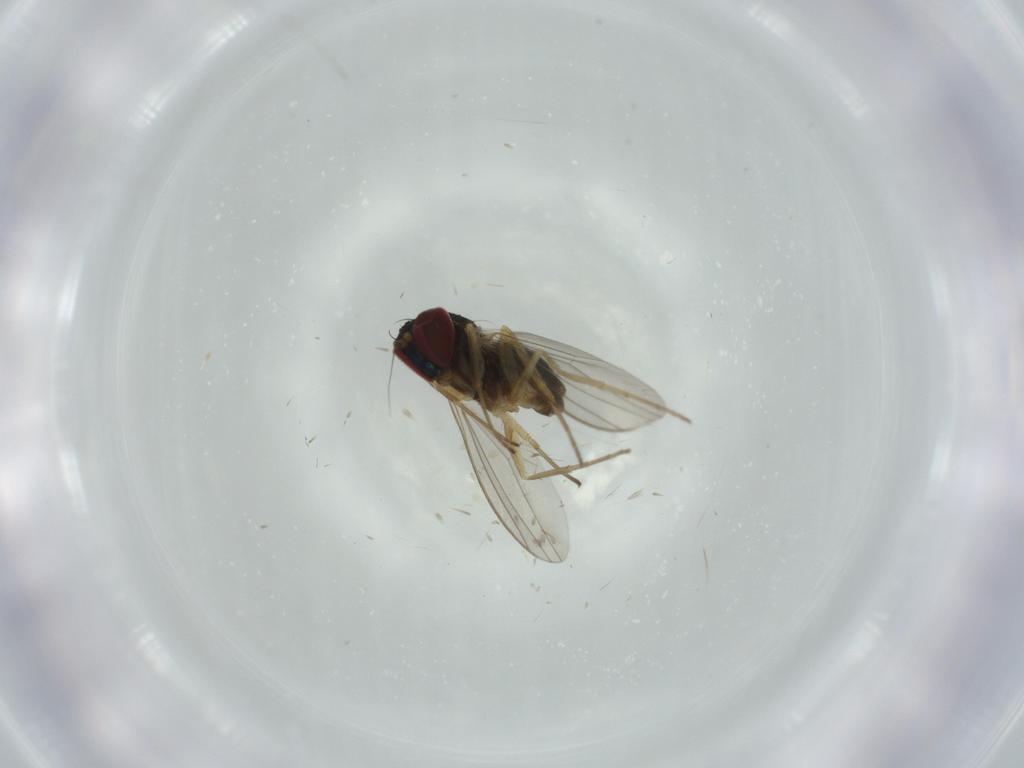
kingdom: Animalia
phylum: Arthropoda
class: Insecta
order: Diptera
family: Dolichopodidae
